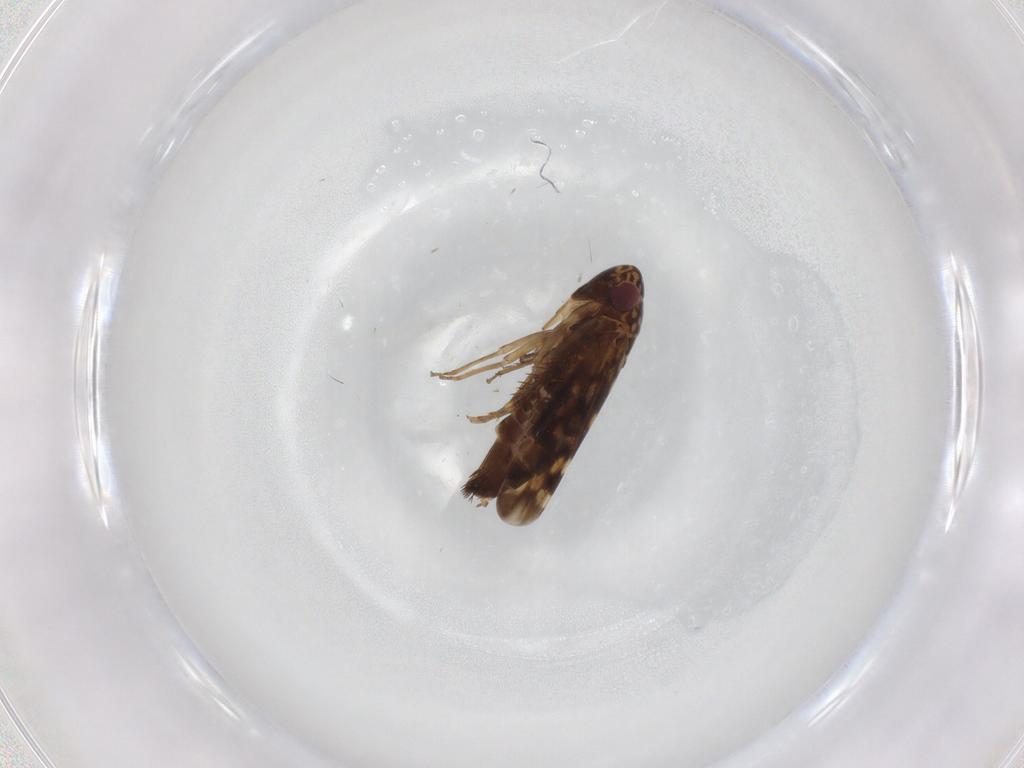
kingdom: Animalia
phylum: Arthropoda
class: Insecta
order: Hemiptera
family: Cicadellidae
